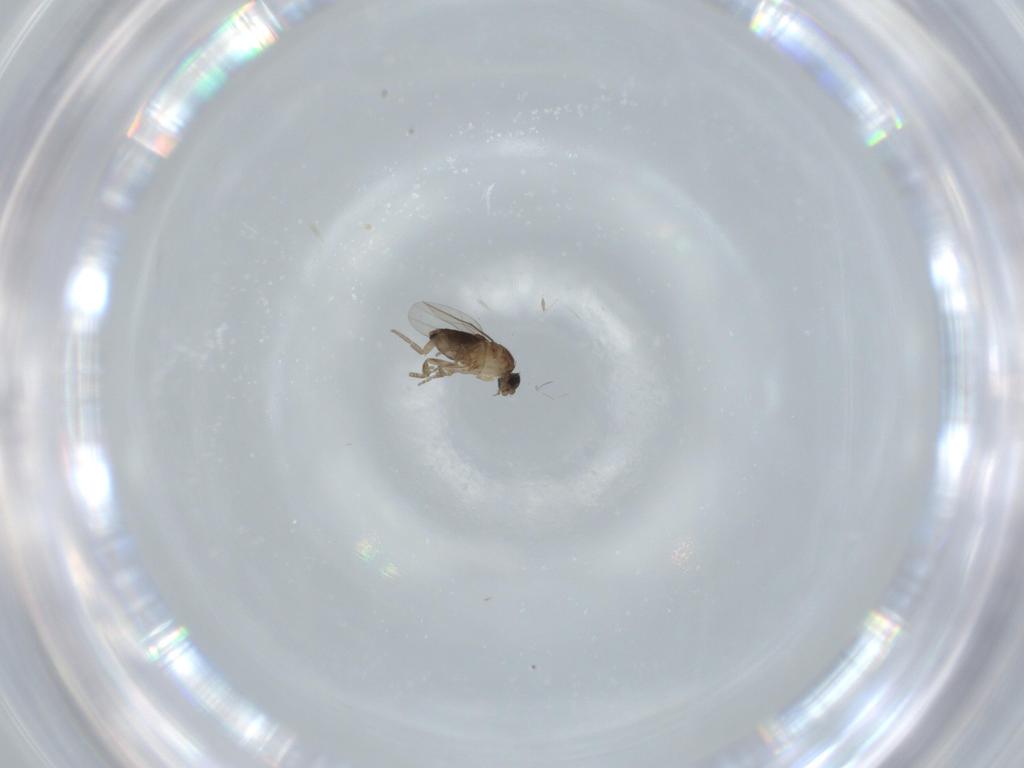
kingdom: Animalia
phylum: Arthropoda
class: Insecta
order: Diptera
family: Phoridae
